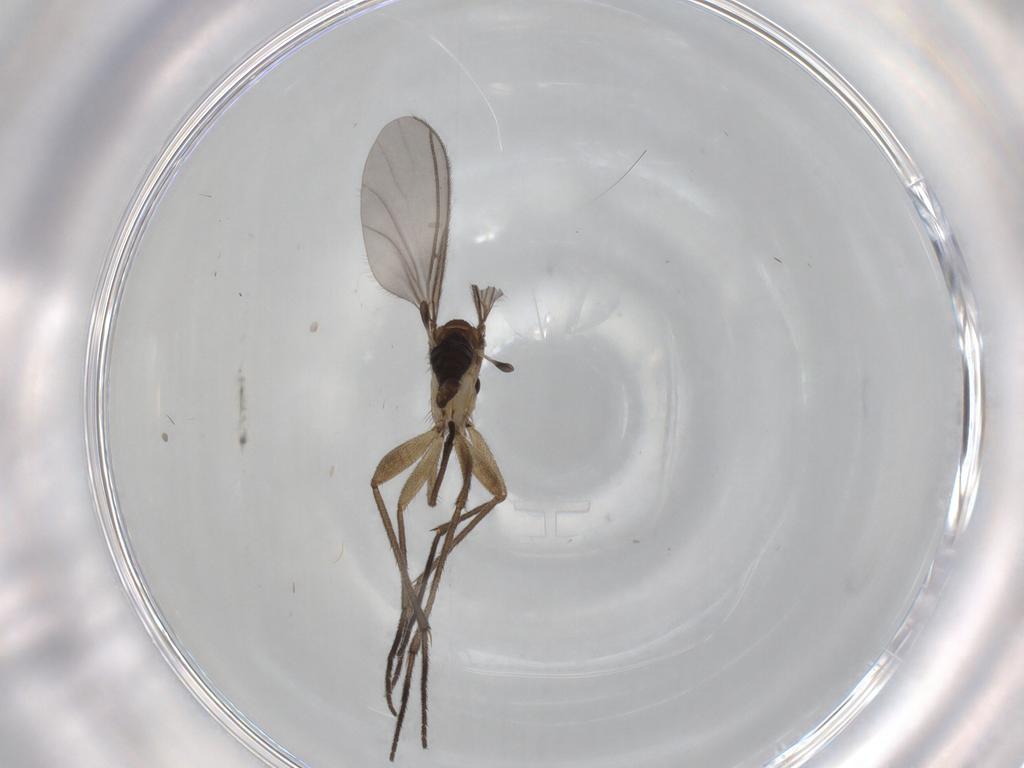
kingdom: Animalia
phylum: Arthropoda
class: Insecta
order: Diptera
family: Sciaridae
